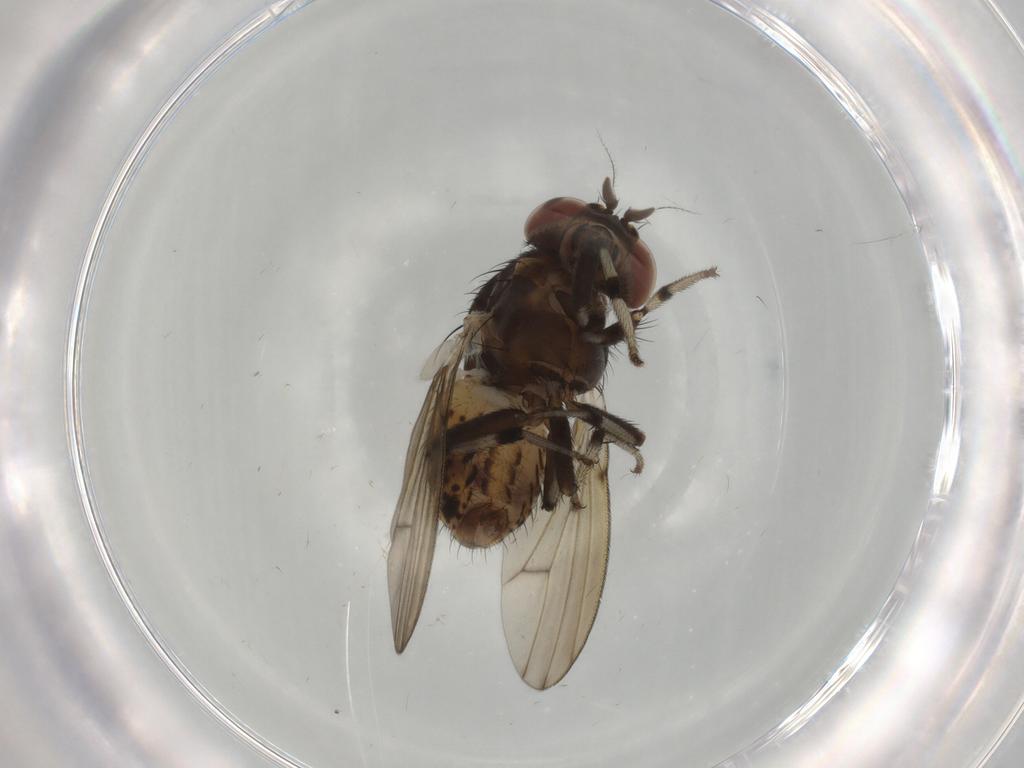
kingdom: Animalia
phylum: Arthropoda
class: Insecta
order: Diptera
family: Lauxaniidae
